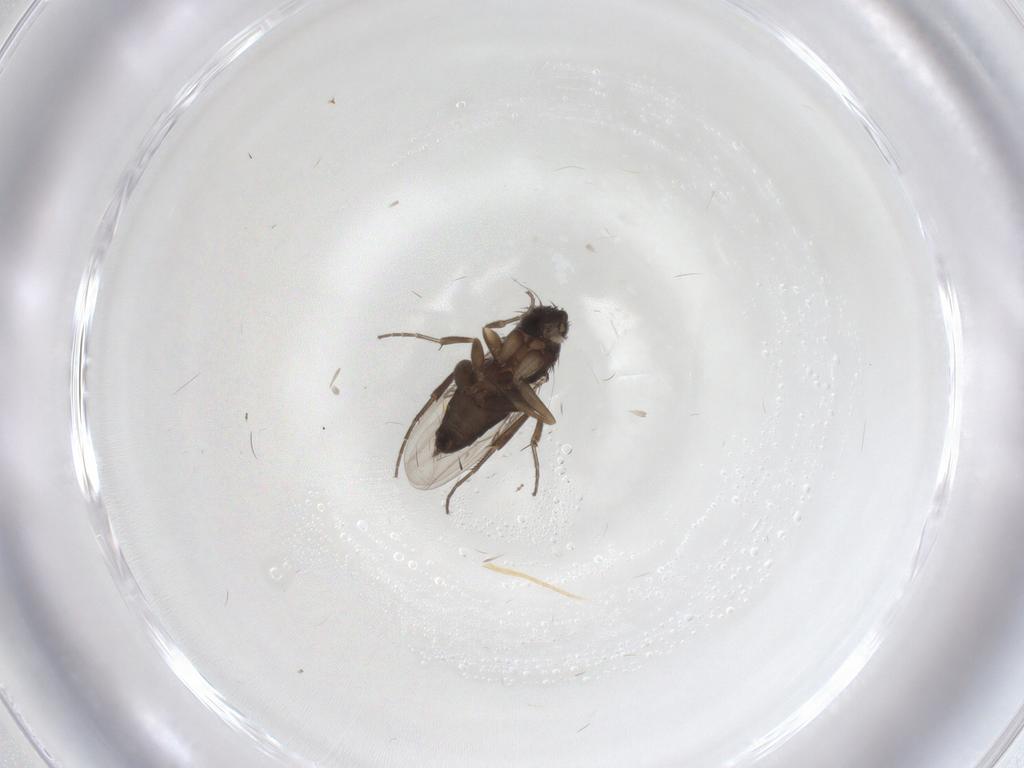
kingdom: Animalia
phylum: Arthropoda
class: Insecta
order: Diptera
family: Phoridae
